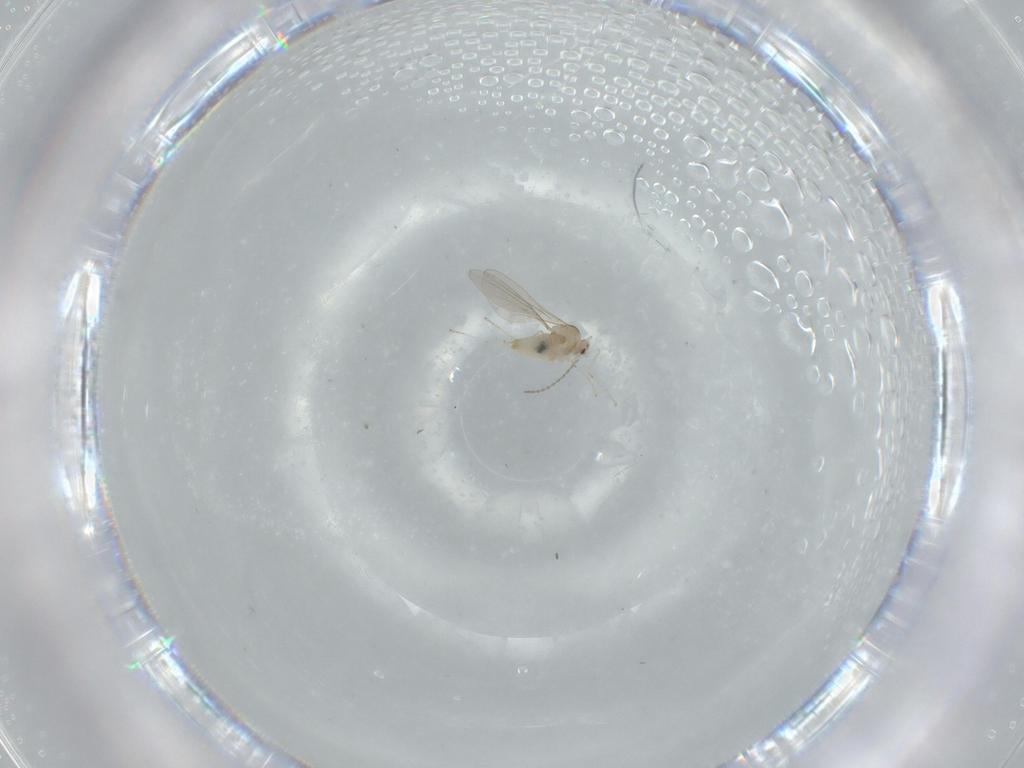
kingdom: Animalia
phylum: Arthropoda
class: Insecta
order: Diptera
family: Cecidomyiidae
